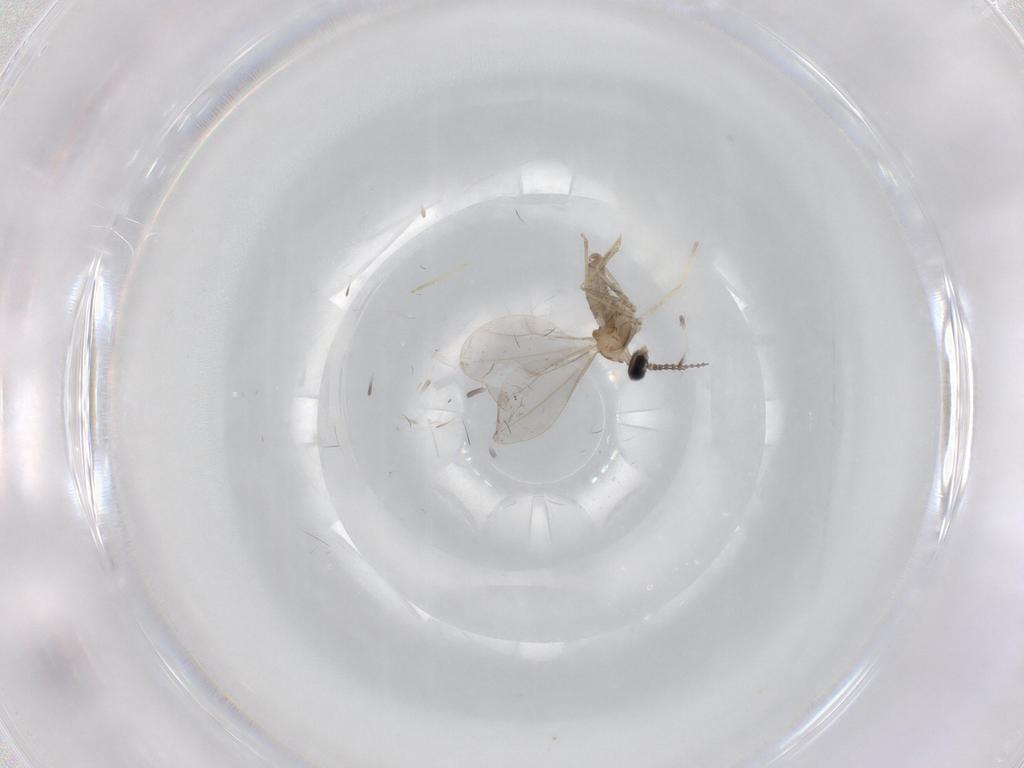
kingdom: Animalia
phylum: Arthropoda
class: Insecta
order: Diptera
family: Cecidomyiidae
